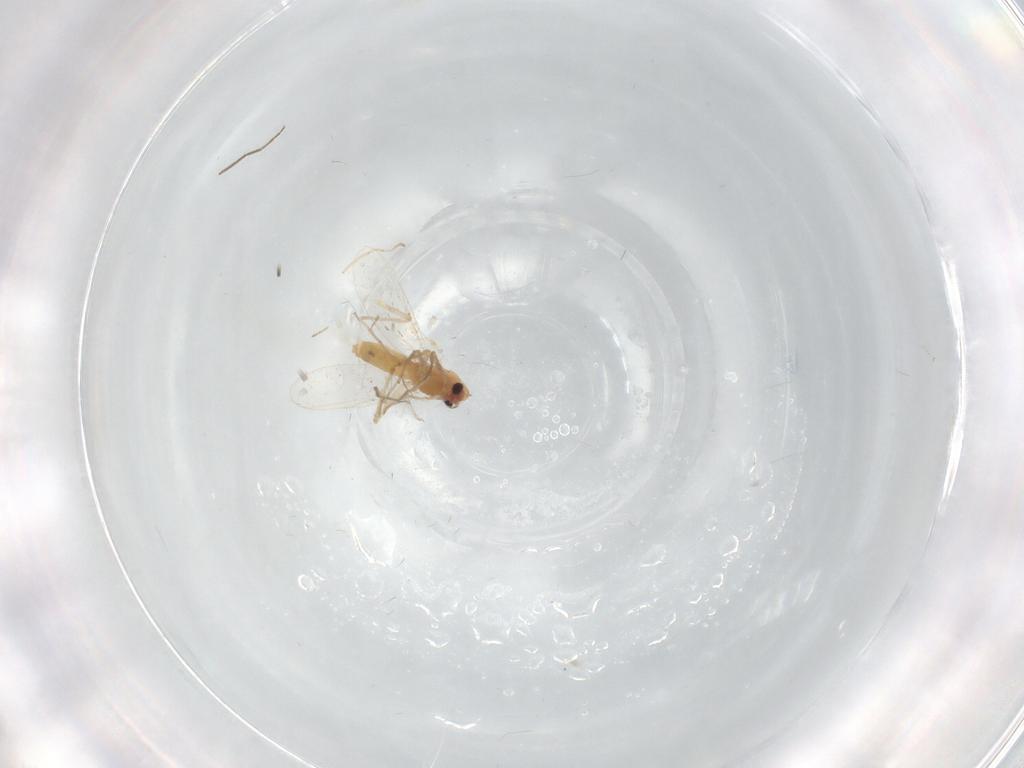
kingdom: Animalia
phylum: Arthropoda
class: Insecta
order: Diptera
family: Chironomidae
